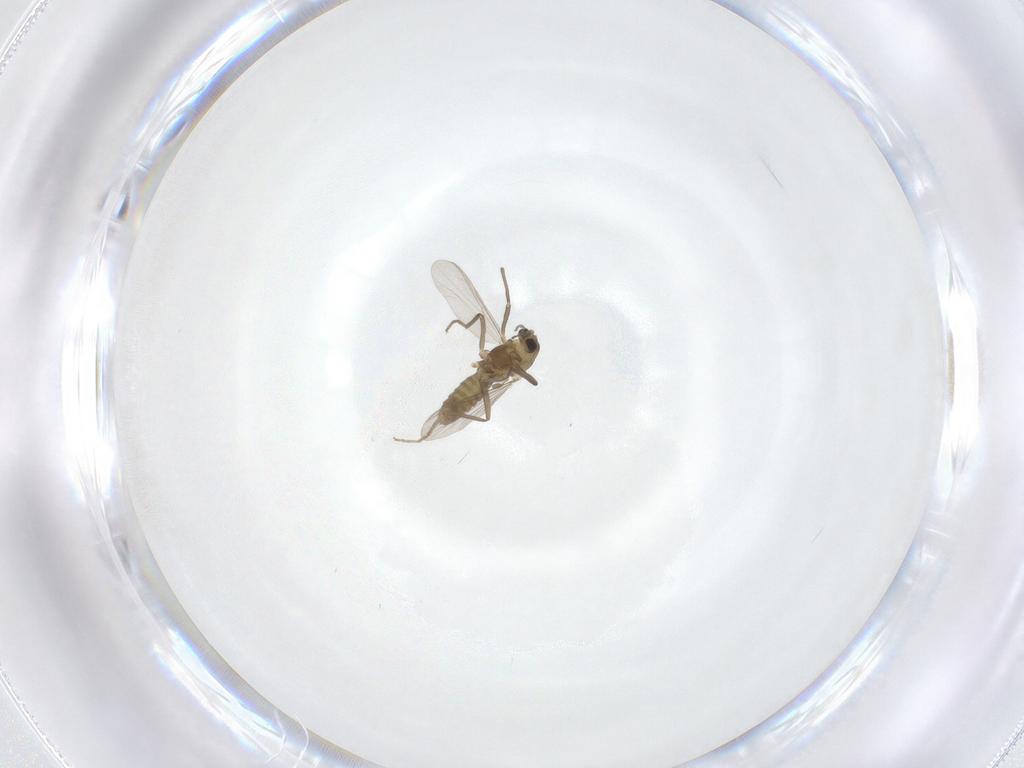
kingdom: Animalia
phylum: Arthropoda
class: Insecta
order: Diptera
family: Chironomidae
